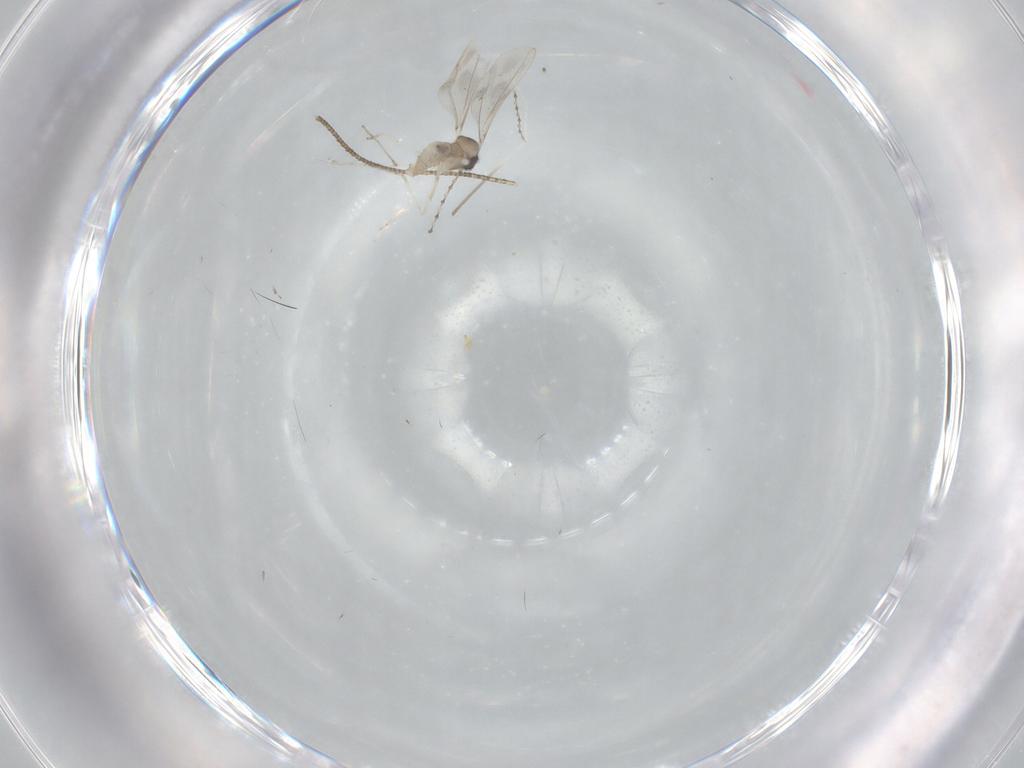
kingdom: Animalia
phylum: Arthropoda
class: Insecta
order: Diptera
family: Cecidomyiidae
